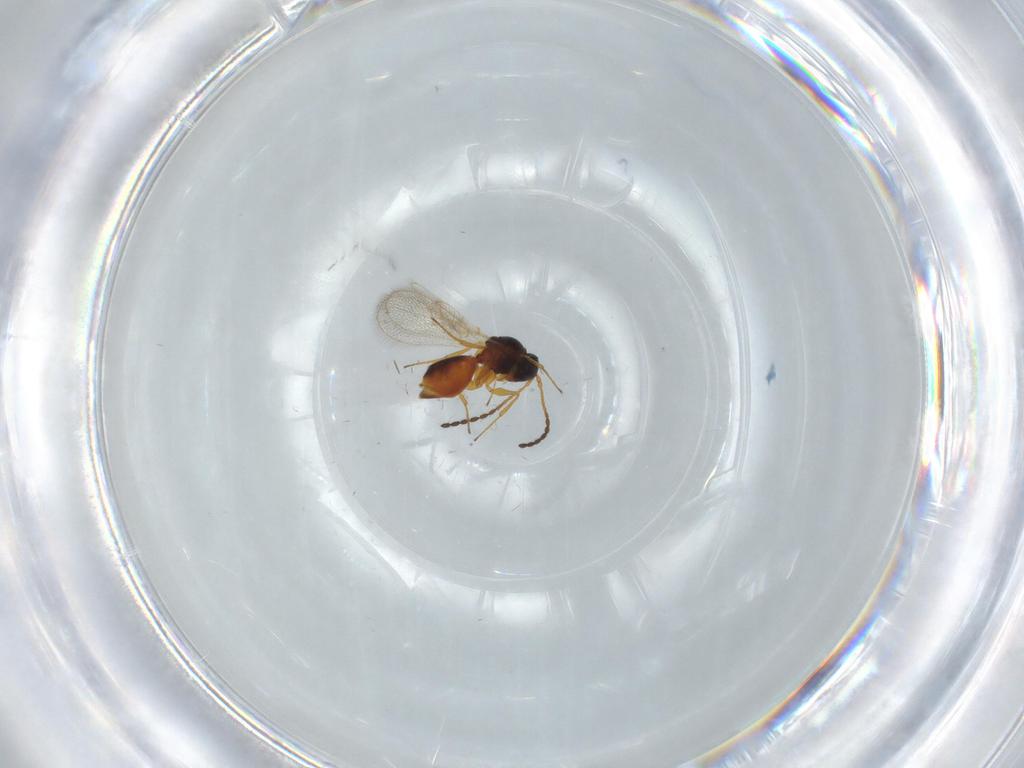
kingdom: Animalia
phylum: Arthropoda
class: Insecta
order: Hymenoptera
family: Figitidae
